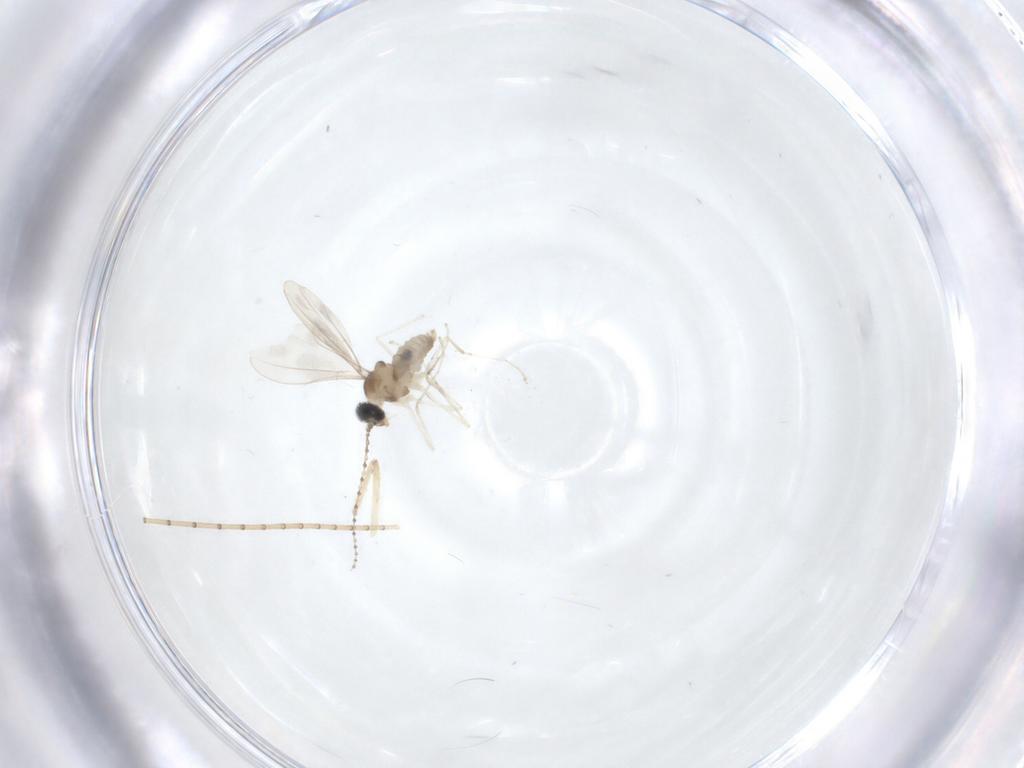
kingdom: Animalia
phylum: Arthropoda
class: Insecta
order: Diptera
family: Chironomidae
